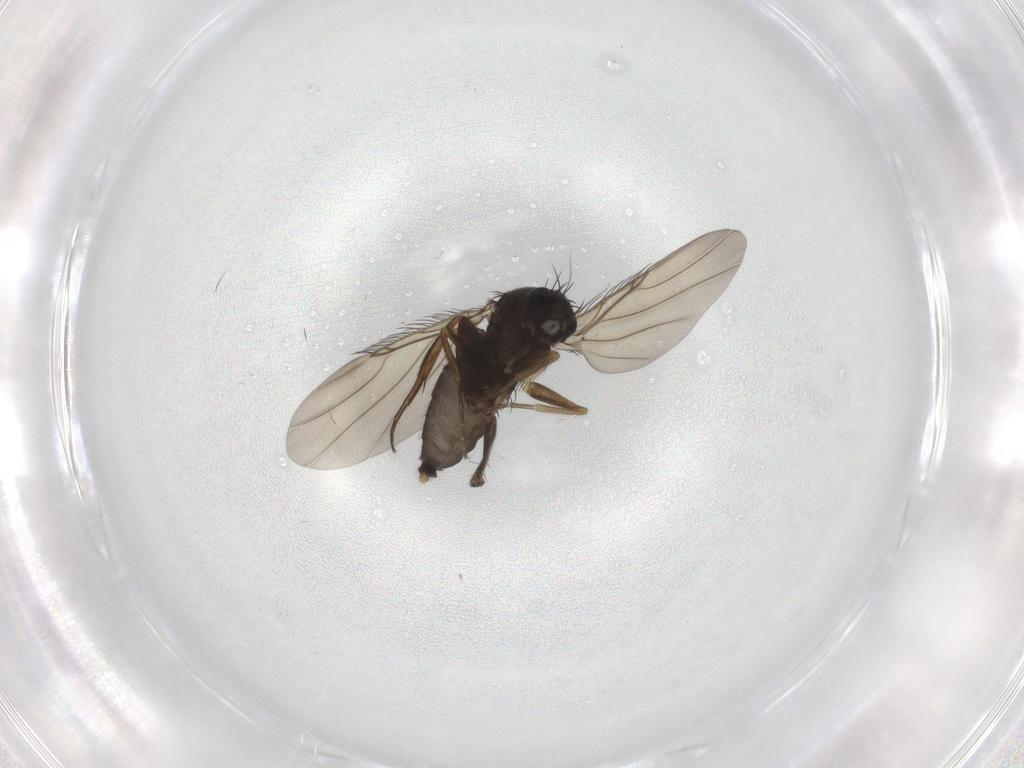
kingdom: Animalia
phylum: Arthropoda
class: Insecta
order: Diptera
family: Phoridae
